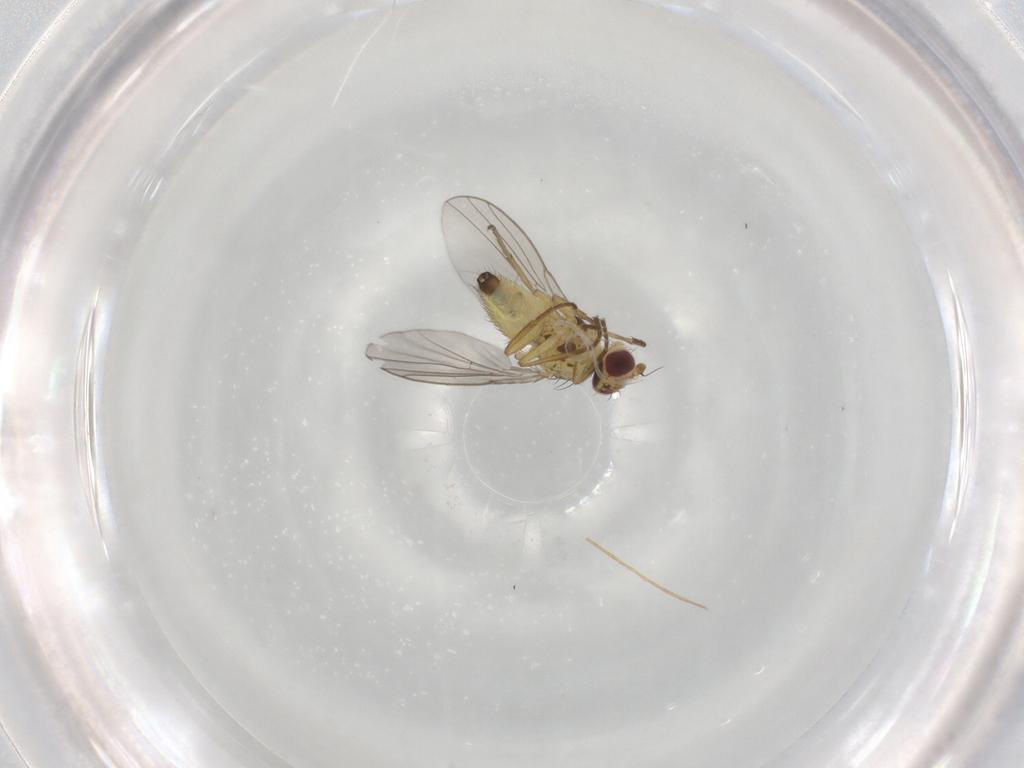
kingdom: Animalia
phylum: Arthropoda
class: Insecta
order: Diptera
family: Agromyzidae
